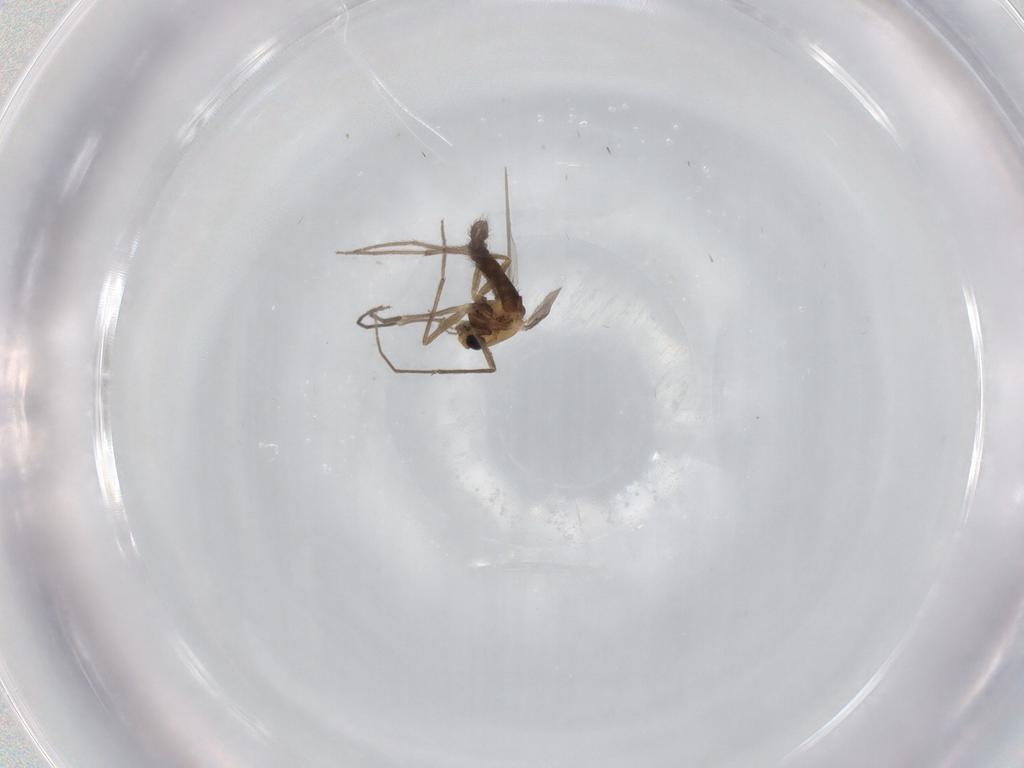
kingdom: Animalia
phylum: Arthropoda
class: Insecta
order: Diptera
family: Chironomidae
